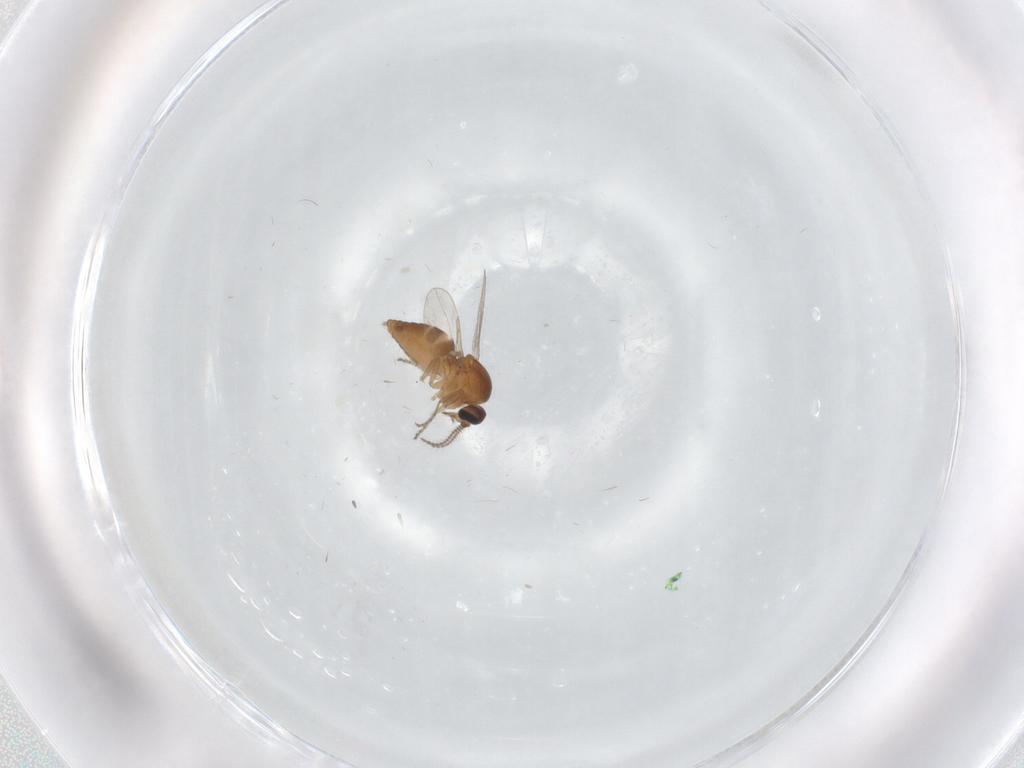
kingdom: Animalia
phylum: Arthropoda
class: Insecta
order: Diptera
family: Ceratopogonidae
